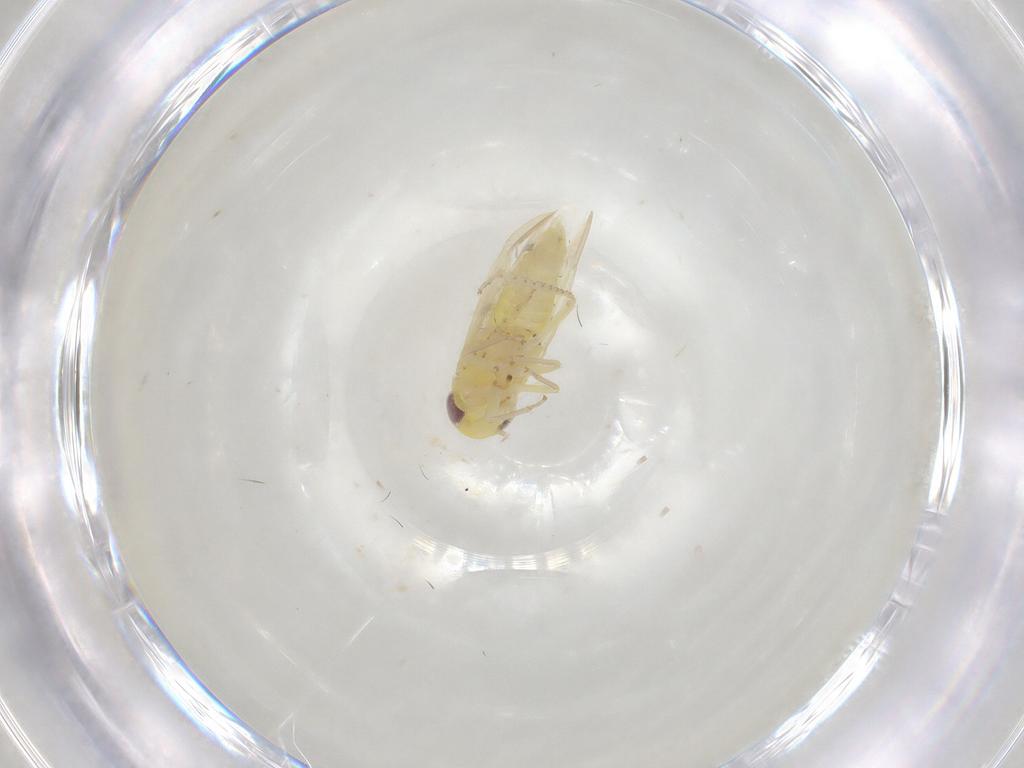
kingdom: Animalia
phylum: Arthropoda
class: Insecta
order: Hemiptera
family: Cicadellidae
